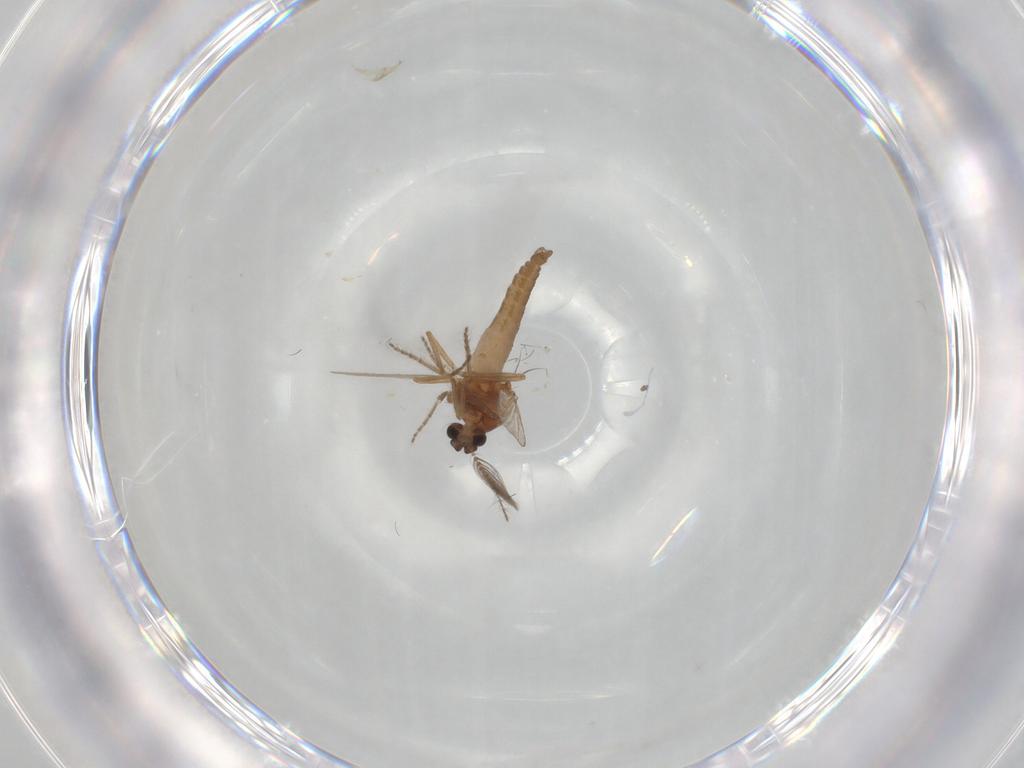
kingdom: Animalia
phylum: Arthropoda
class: Insecta
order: Diptera
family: Ceratopogonidae
